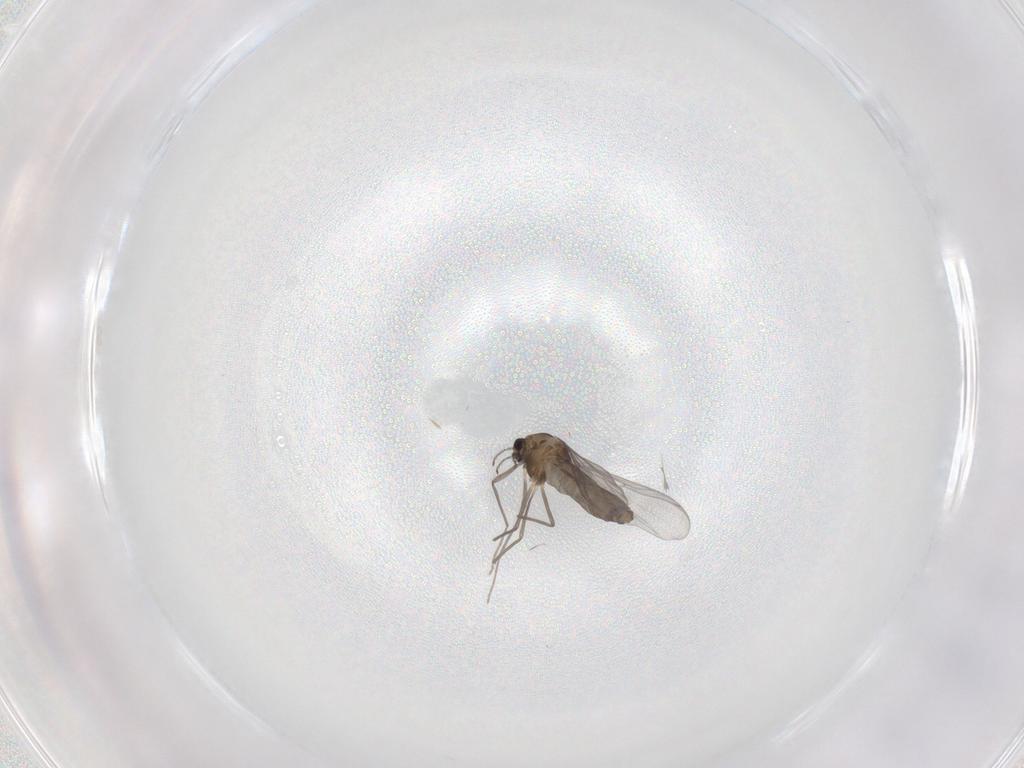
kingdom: Animalia
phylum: Arthropoda
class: Insecta
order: Diptera
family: Chironomidae
